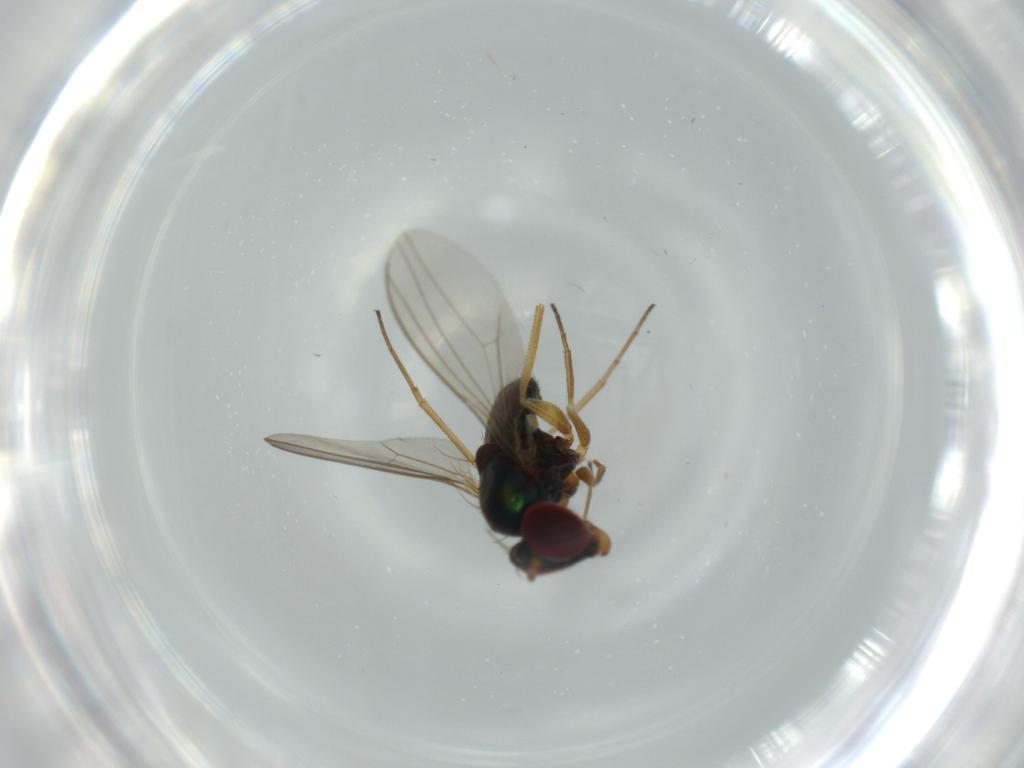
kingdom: Animalia
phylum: Arthropoda
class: Insecta
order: Diptera
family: Dolichopodidae
